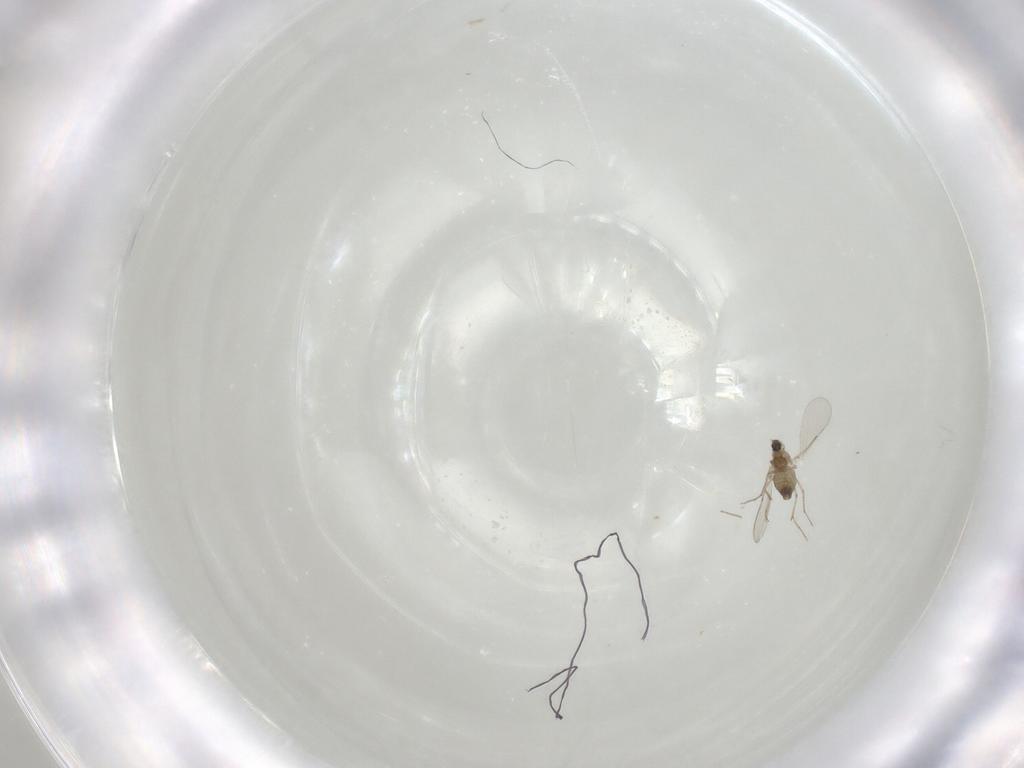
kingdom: Animalia
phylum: Arthropoda
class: Insecta
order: Diptera
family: Chironomidae
